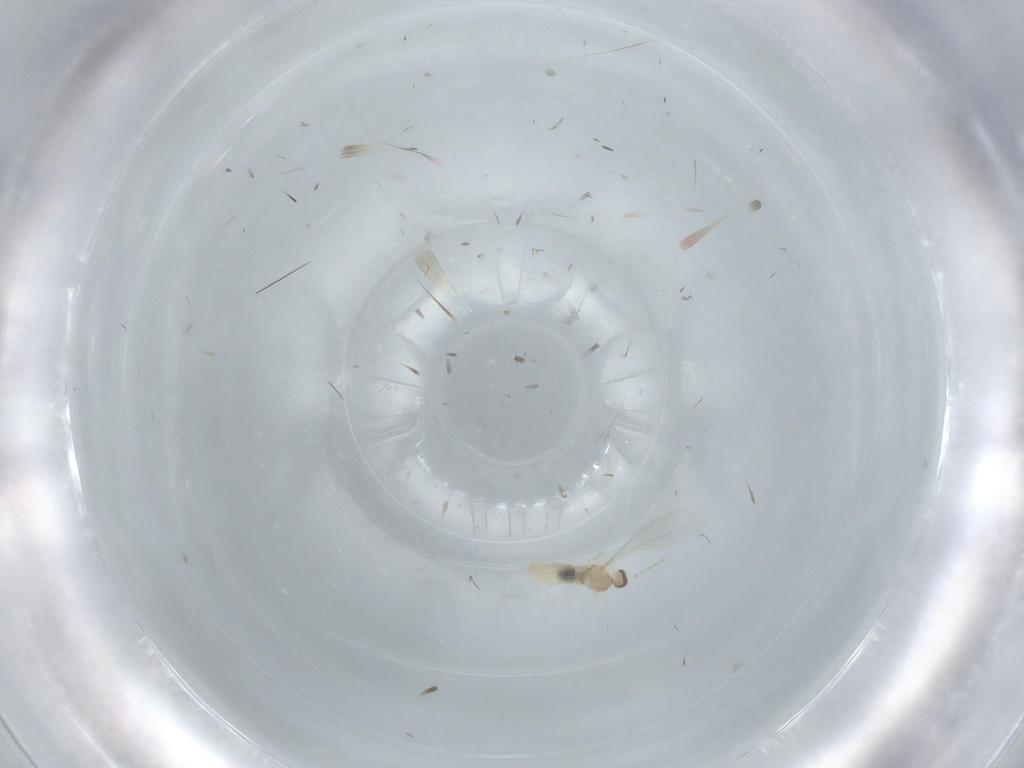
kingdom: Animalia
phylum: Arthropoda
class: Insecta
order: Diptera
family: Cecidomyiidae
